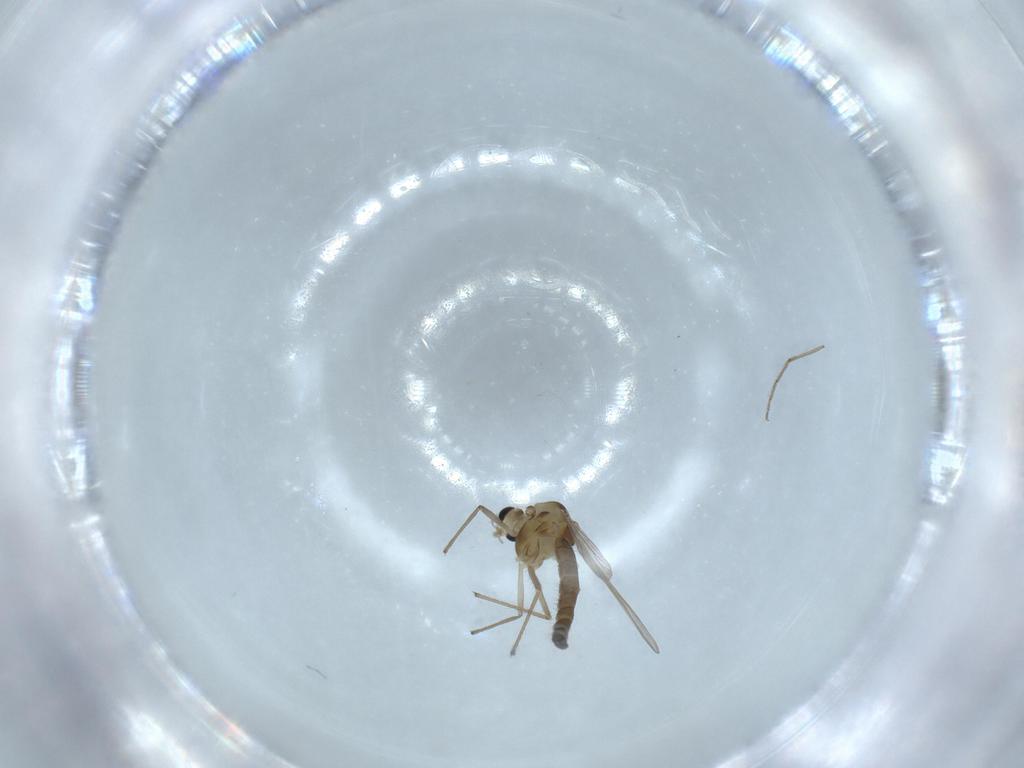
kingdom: Animalia
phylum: Arthropoda
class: Insecta
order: Diptera
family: Chironomidae
